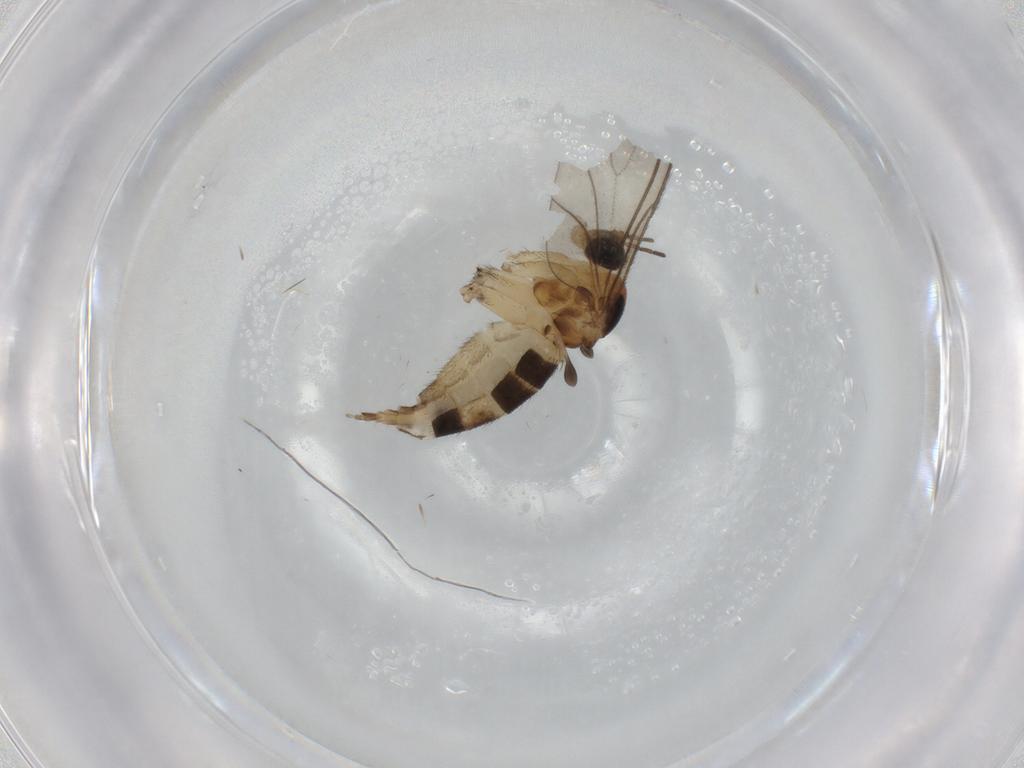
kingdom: Animalia
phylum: Arthropoda
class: Insecta
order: Diptera
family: Sciaridae
